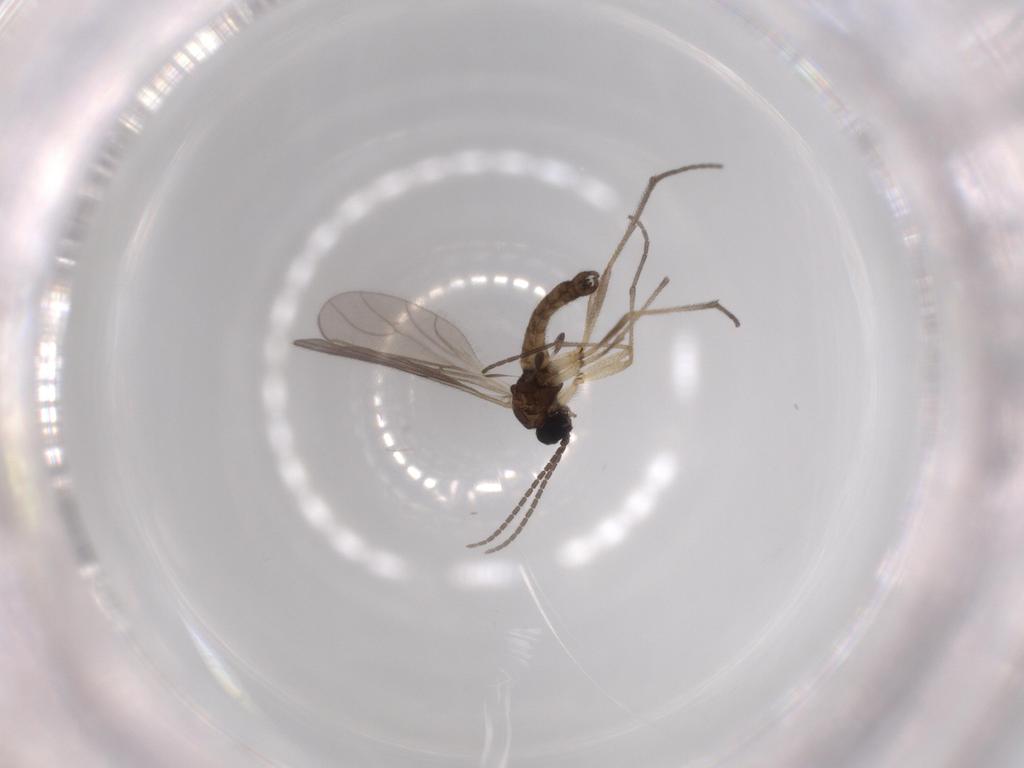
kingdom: Animalia
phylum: Arthropoda
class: Insecta
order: Diptera
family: Sciaridae
